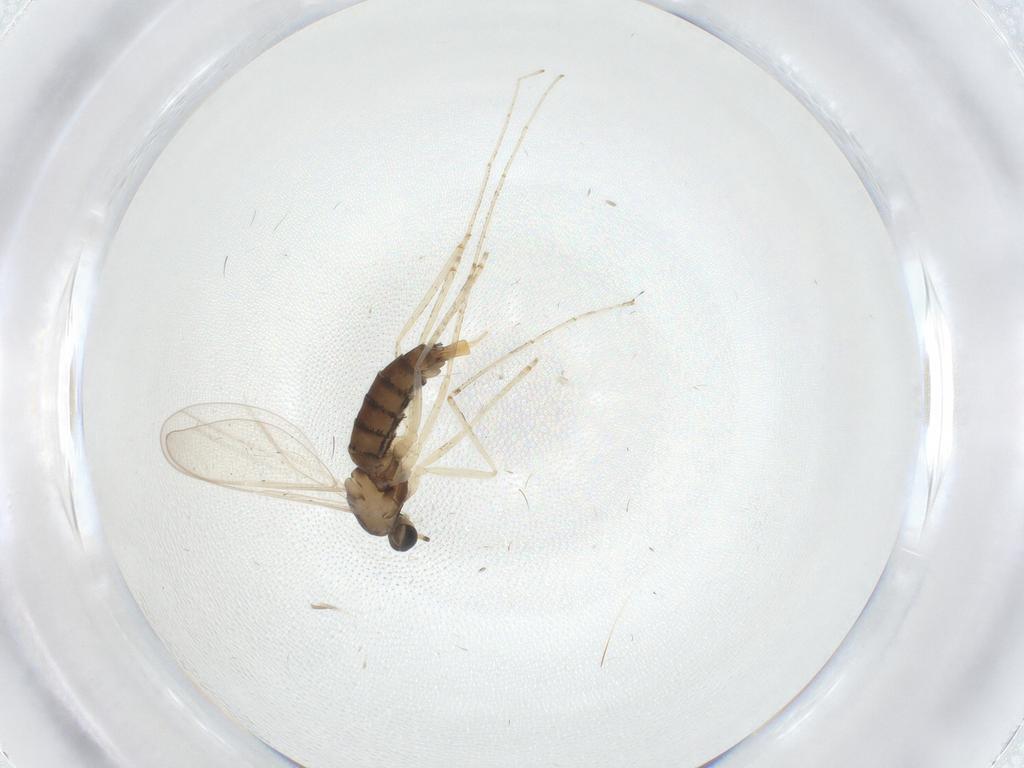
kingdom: Animalia
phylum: Arthropoda
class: Insecta
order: Diptera
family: Cecidomyiidae
